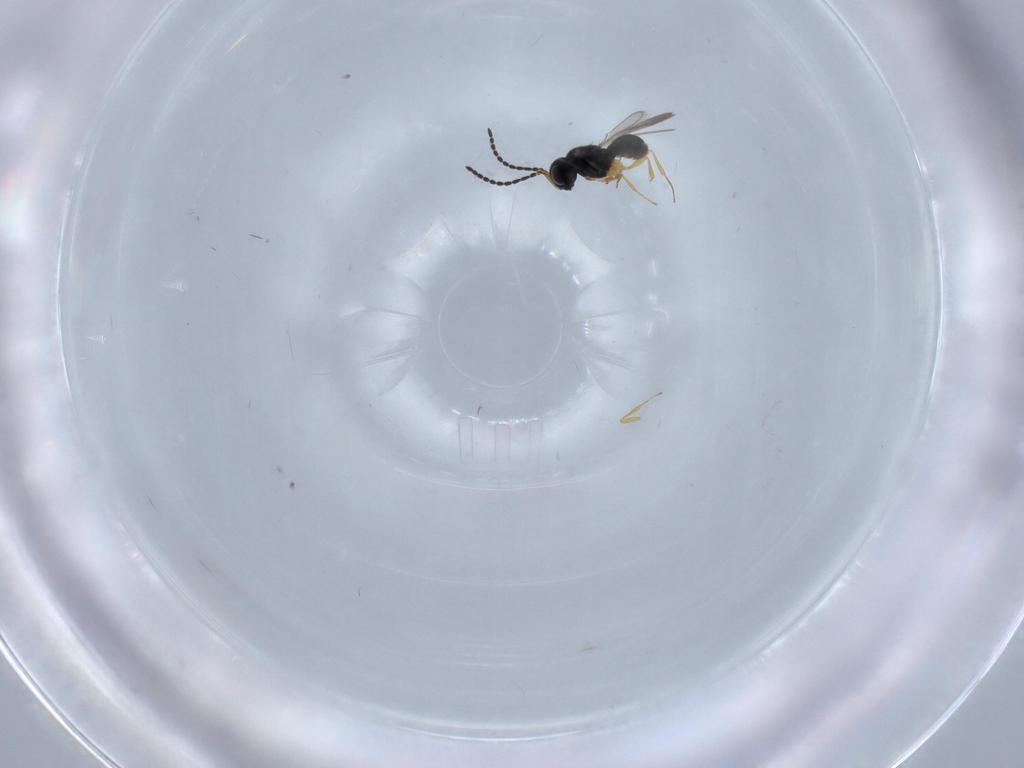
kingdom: Animalia
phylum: Arthropoda
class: Insecta
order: Hymenoptera
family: Scelionidae
